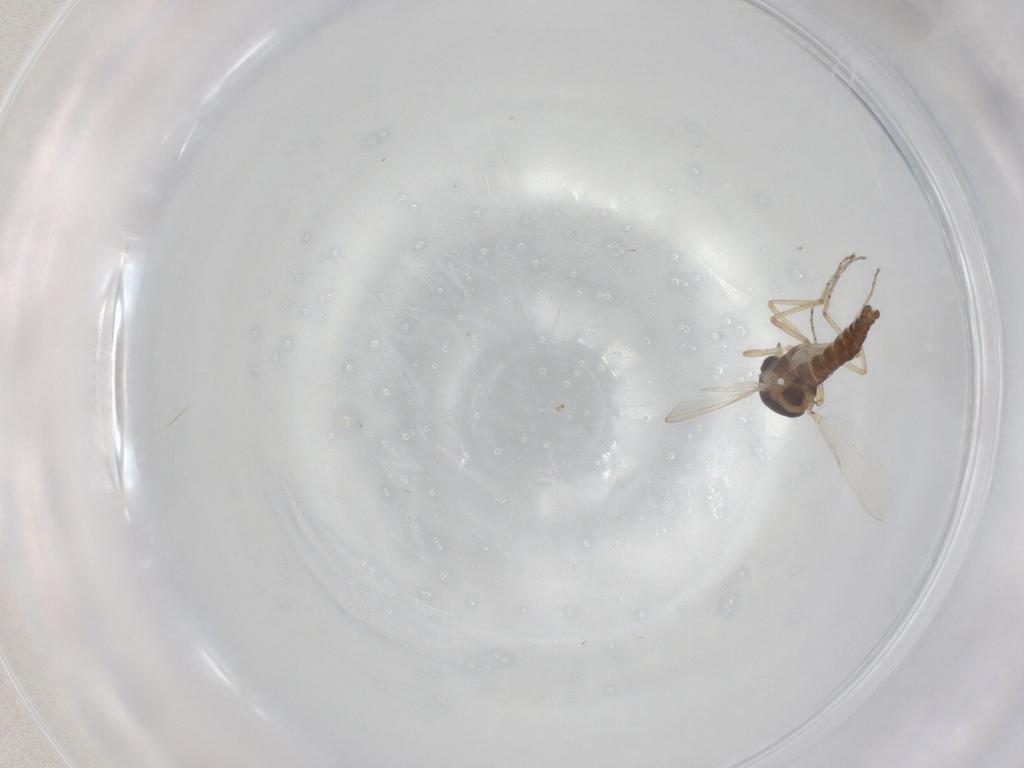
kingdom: Animalia
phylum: Arthropoda
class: Insecta
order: Diptera
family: Ceratopogonidae
